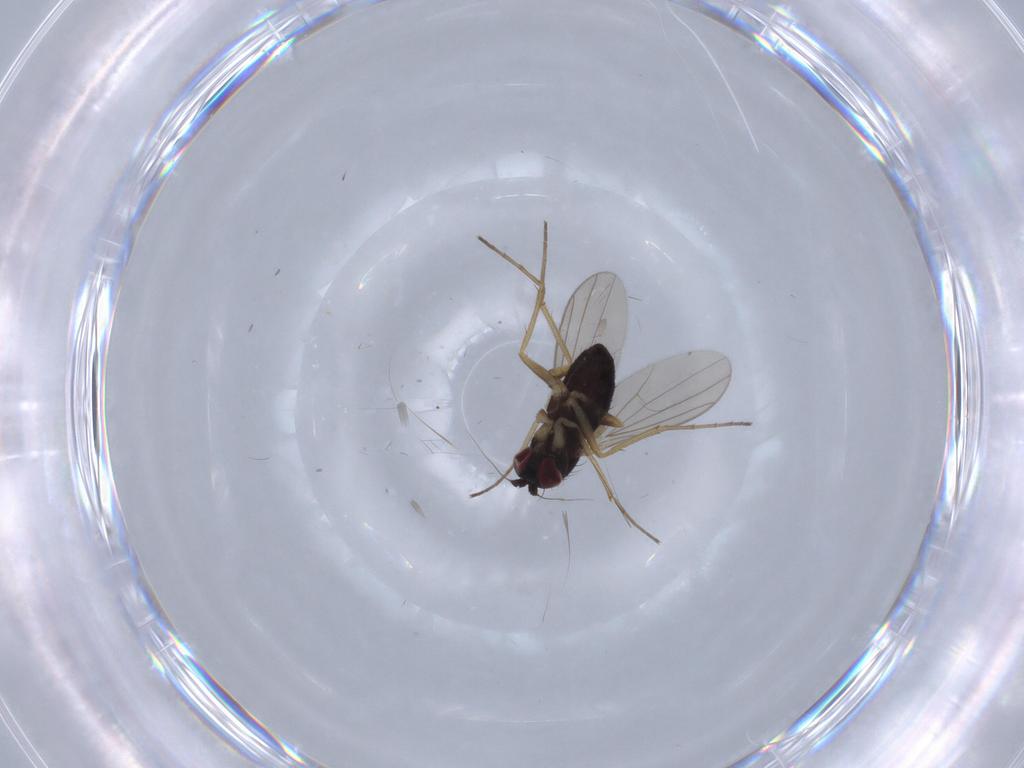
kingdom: Animalia
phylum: Arthropoda
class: Insecta
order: Diptera
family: Dolichopodidae
